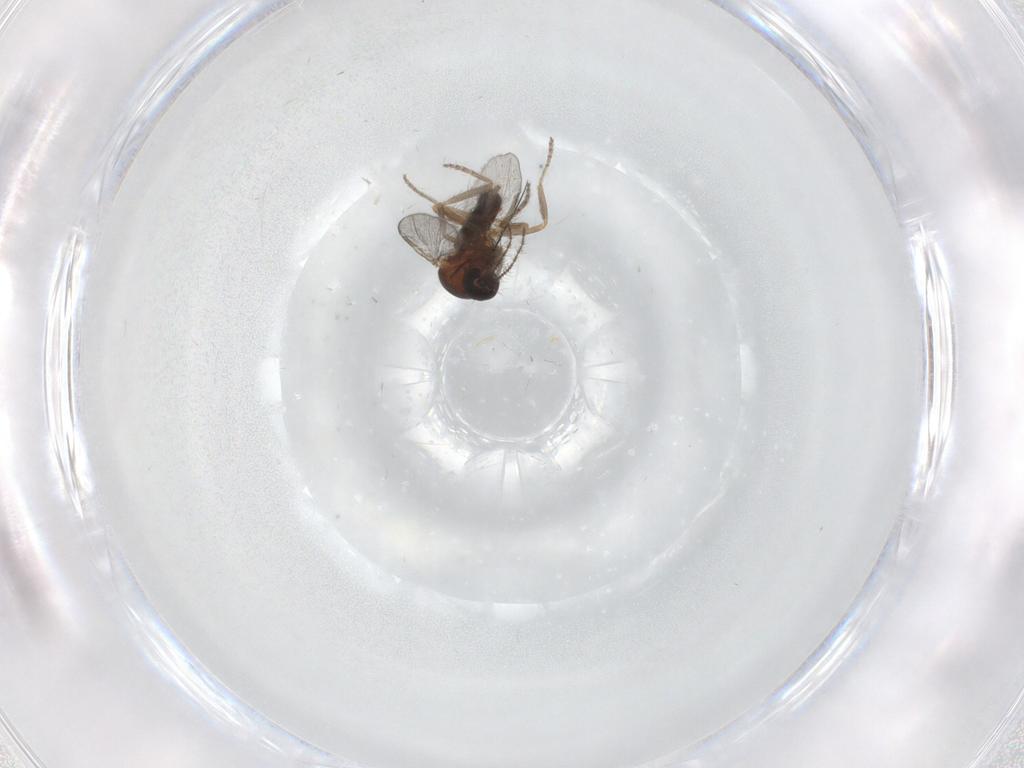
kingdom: Animalia
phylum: Arthropoda
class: Insecta
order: Diptera
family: Ceratopogonidae
